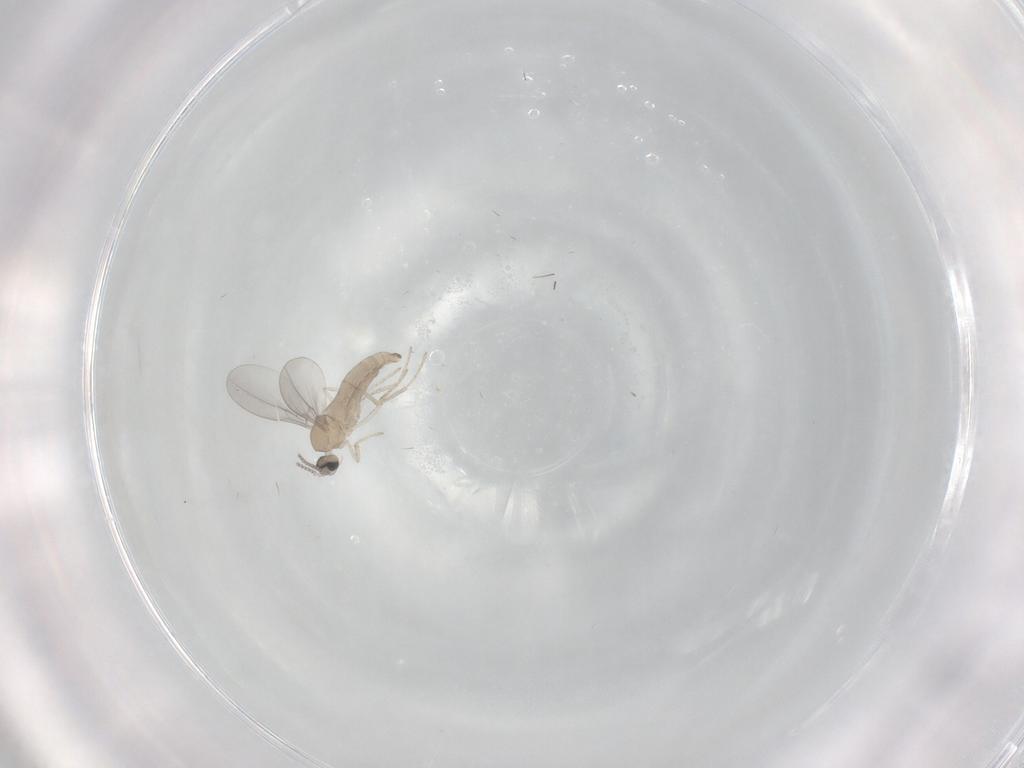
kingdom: Animalia
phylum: Arthropoda
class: Insecta
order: Diptera
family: Cecidomyiidae
